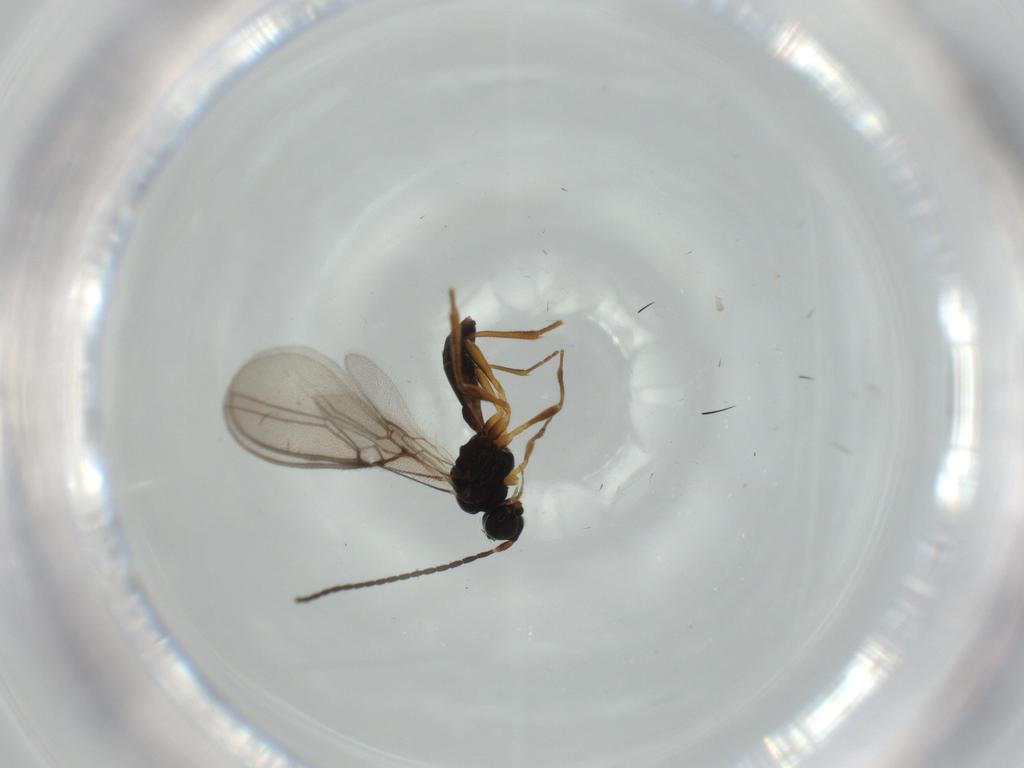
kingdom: Animalia
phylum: Arthropoda
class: Insecta
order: Hymenoptera
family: Braconidae
